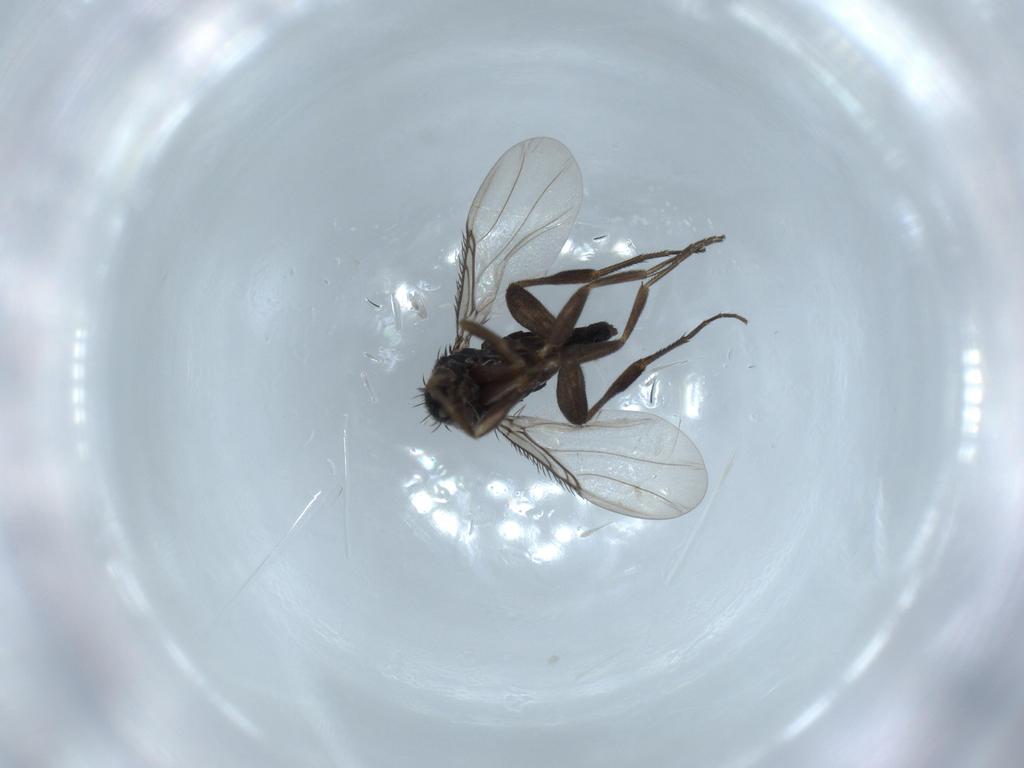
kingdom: Animalia
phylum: Arthropoda
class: Insecta
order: Diptera
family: Phoridae
